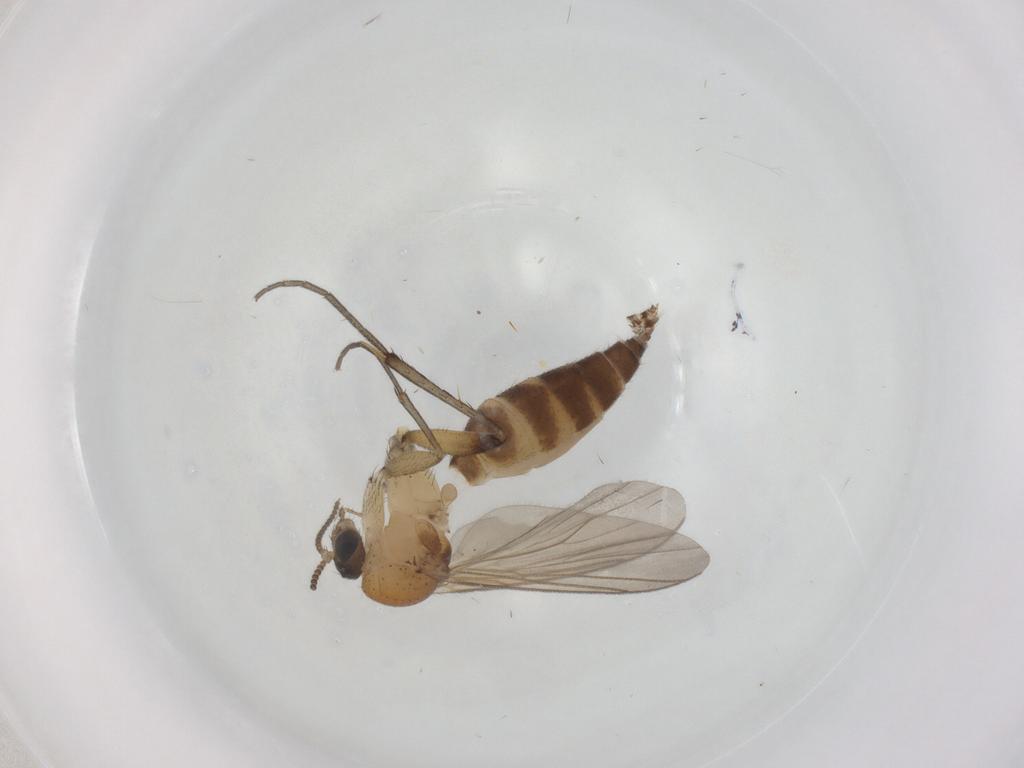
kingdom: Animalia
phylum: Arthropoda
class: Insecta
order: Diptera
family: Mycetophilidae
